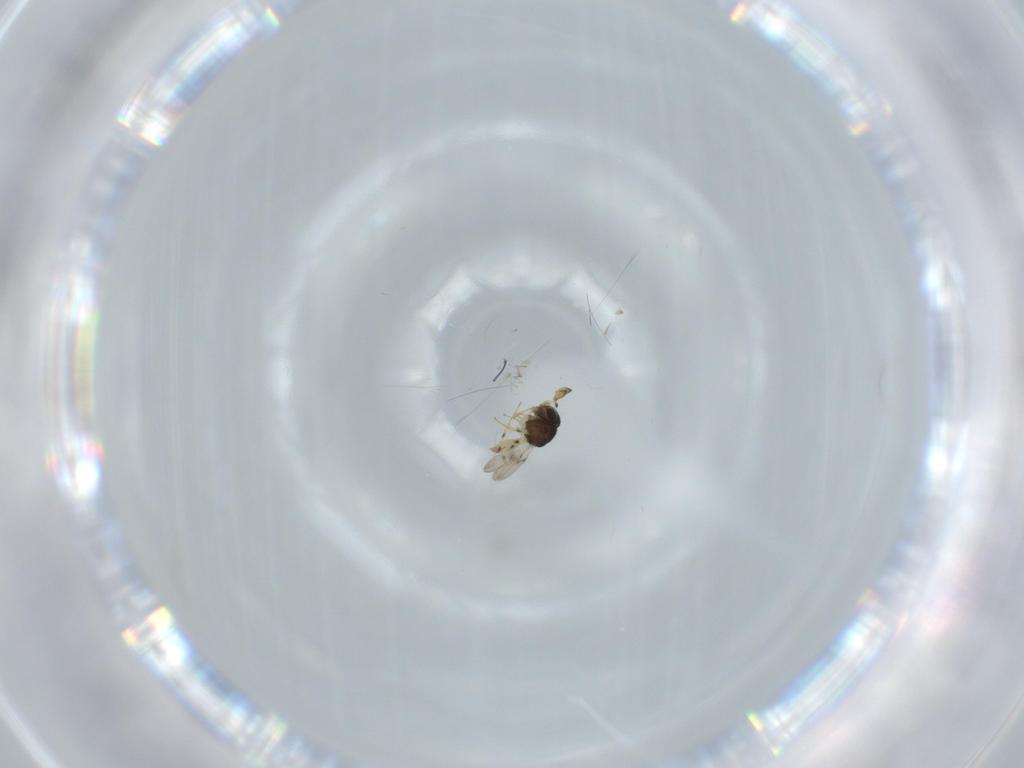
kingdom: Animalia
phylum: Arthropoda
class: Insecta
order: Hymenoptera
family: Scelionidae
